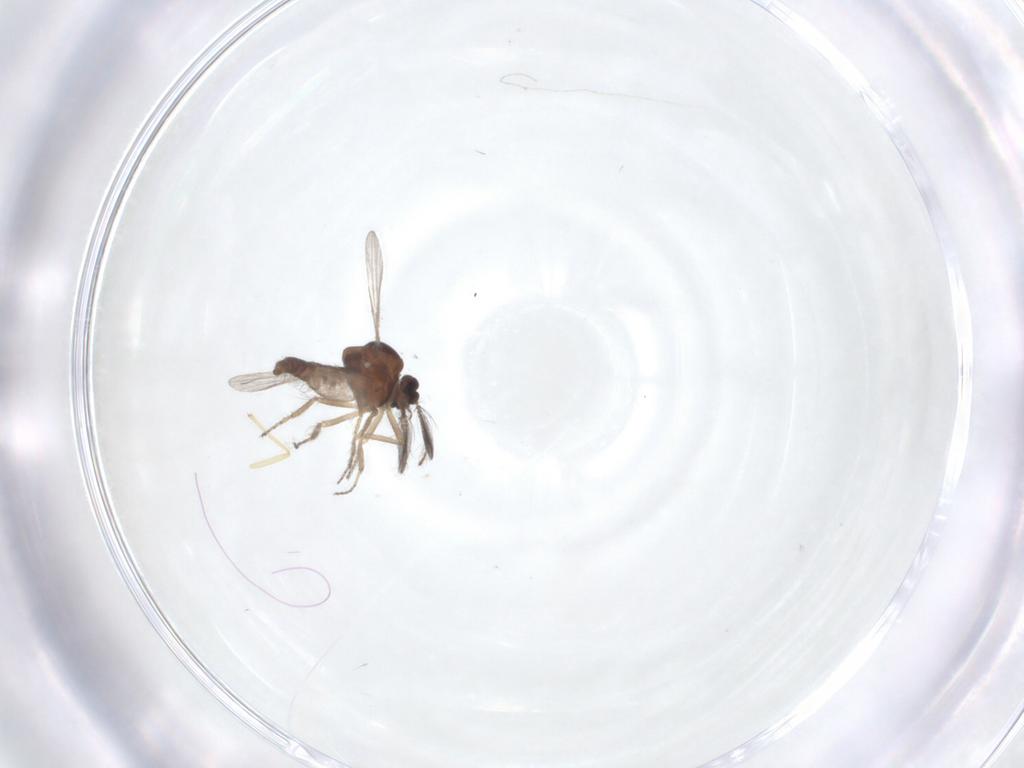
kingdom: Animalia
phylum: Arthropoda
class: Insecta
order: Diptera
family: Ceratopogonidae
